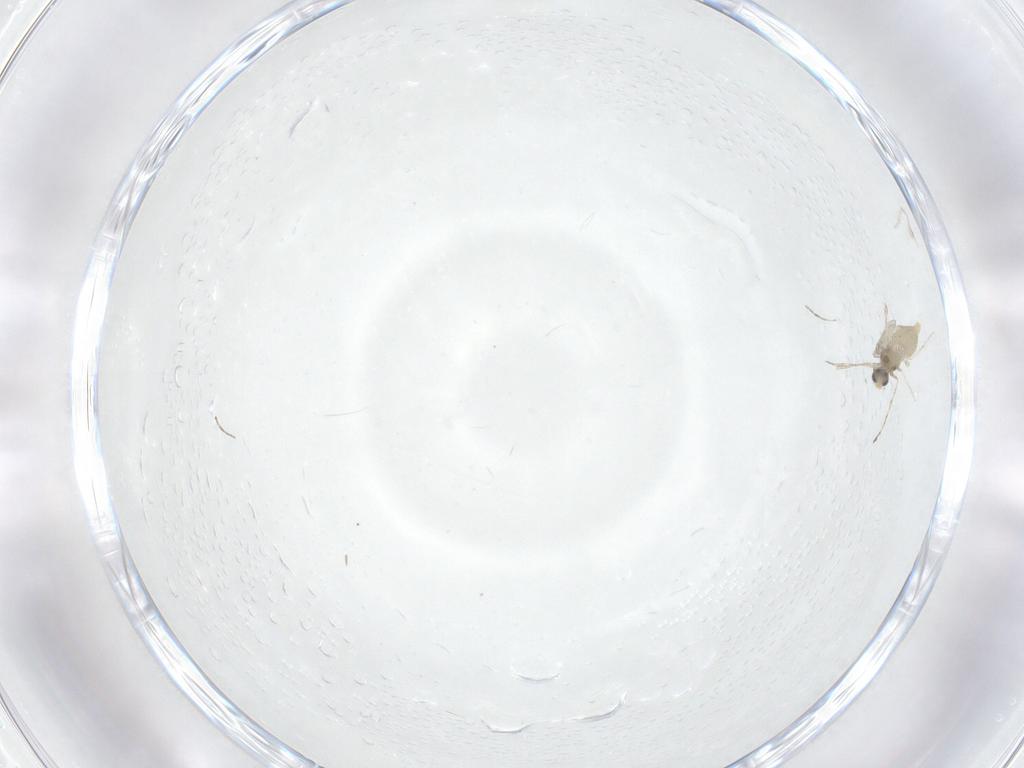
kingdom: Animalia
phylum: Arthropoda
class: Insecta
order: Diptera
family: Cecidomyiidae
